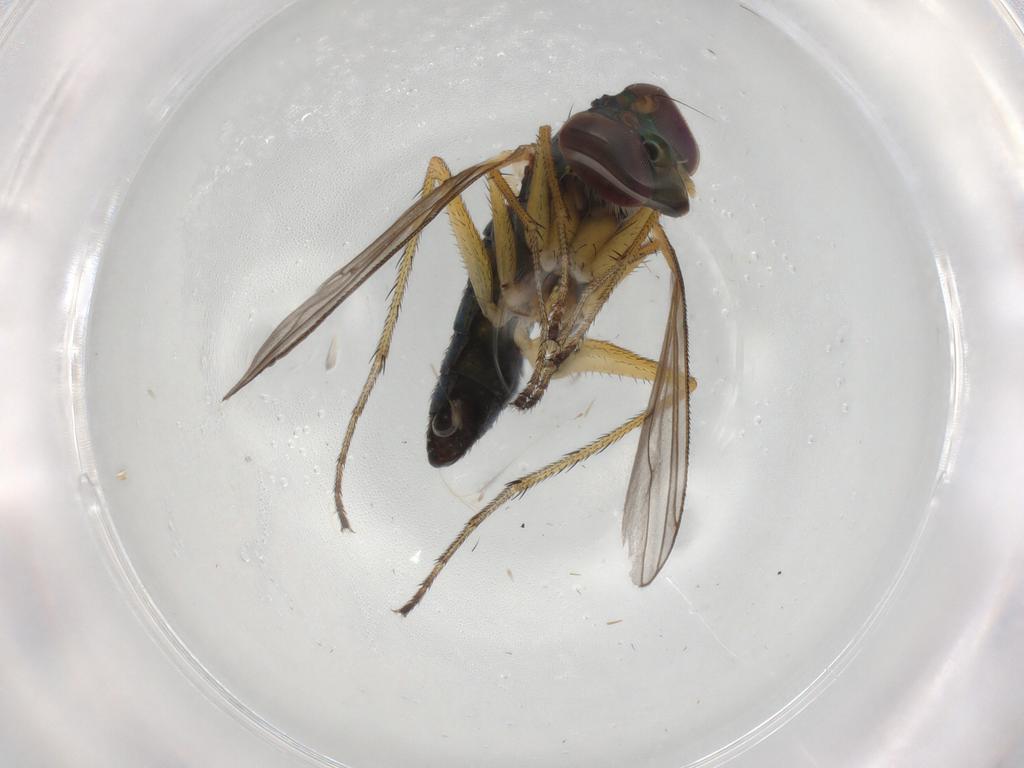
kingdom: Animalia
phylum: Arthropoda
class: Insecta
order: Diptera
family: Dolichopodidae
